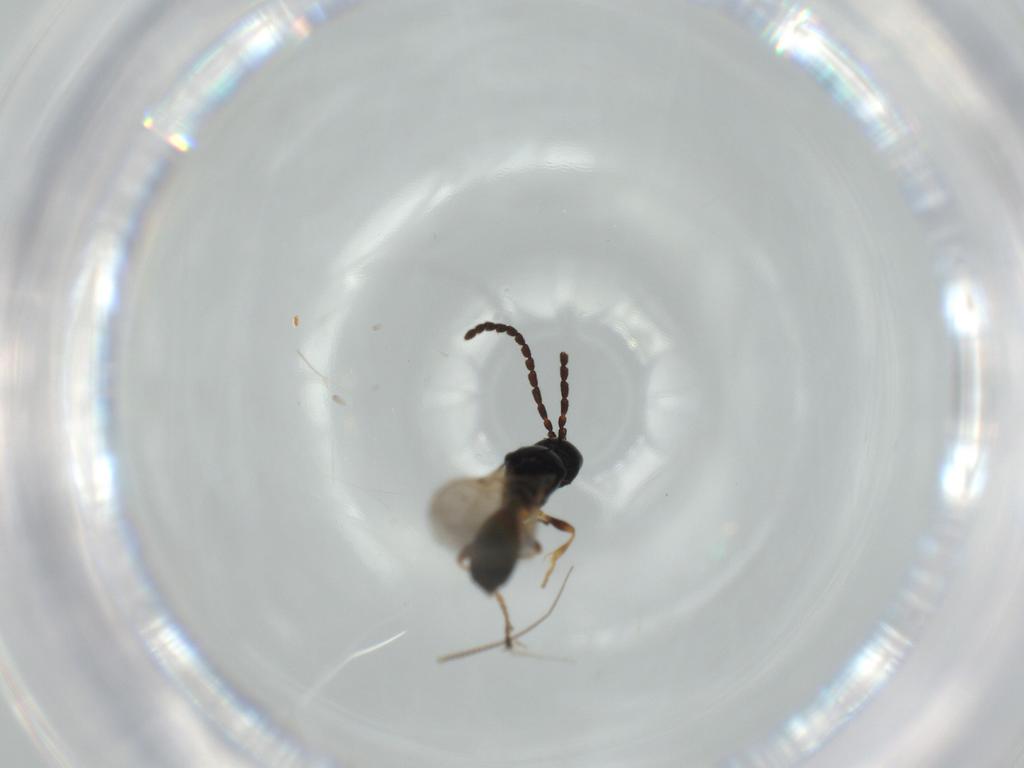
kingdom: Animalia
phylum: Arthropoda
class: Insecta
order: Hymenoptera
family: Diapriidae
